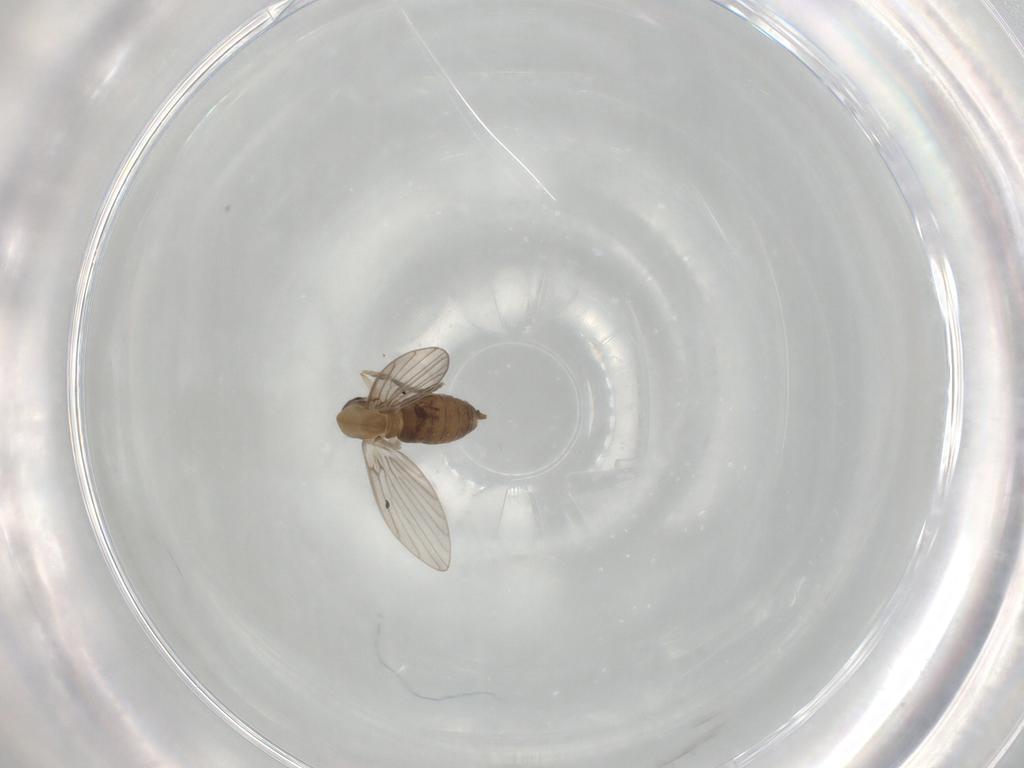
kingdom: Animalia
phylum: Arthropoda
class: Insecta
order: Diptera
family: Psychodidae
